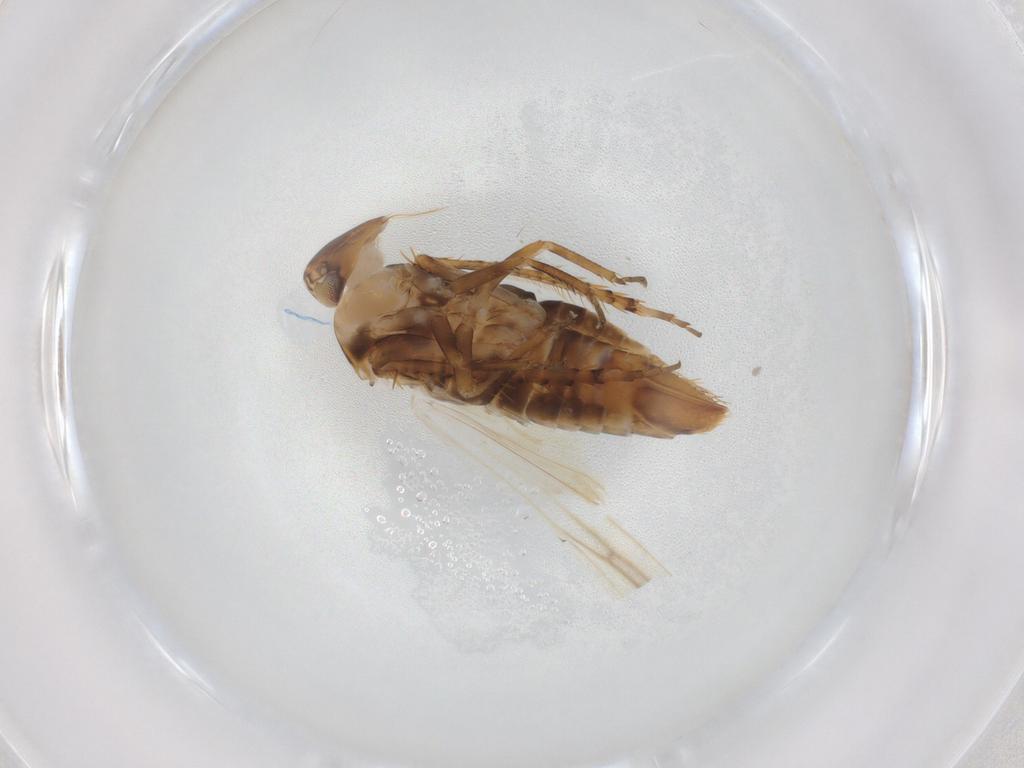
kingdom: Animalia
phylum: Arthropoda
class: Insecta
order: Hemiptera
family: Cicadellidae
